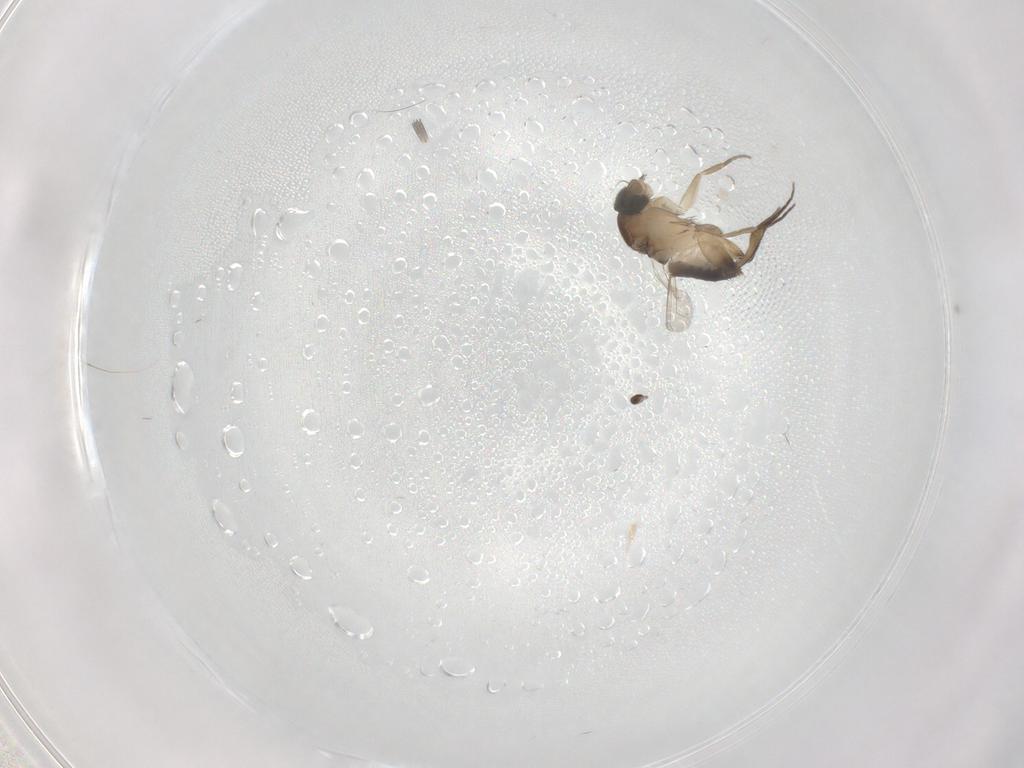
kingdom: Animalia
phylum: Arthropoda
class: Insecta
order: Diptera
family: Phoridae
